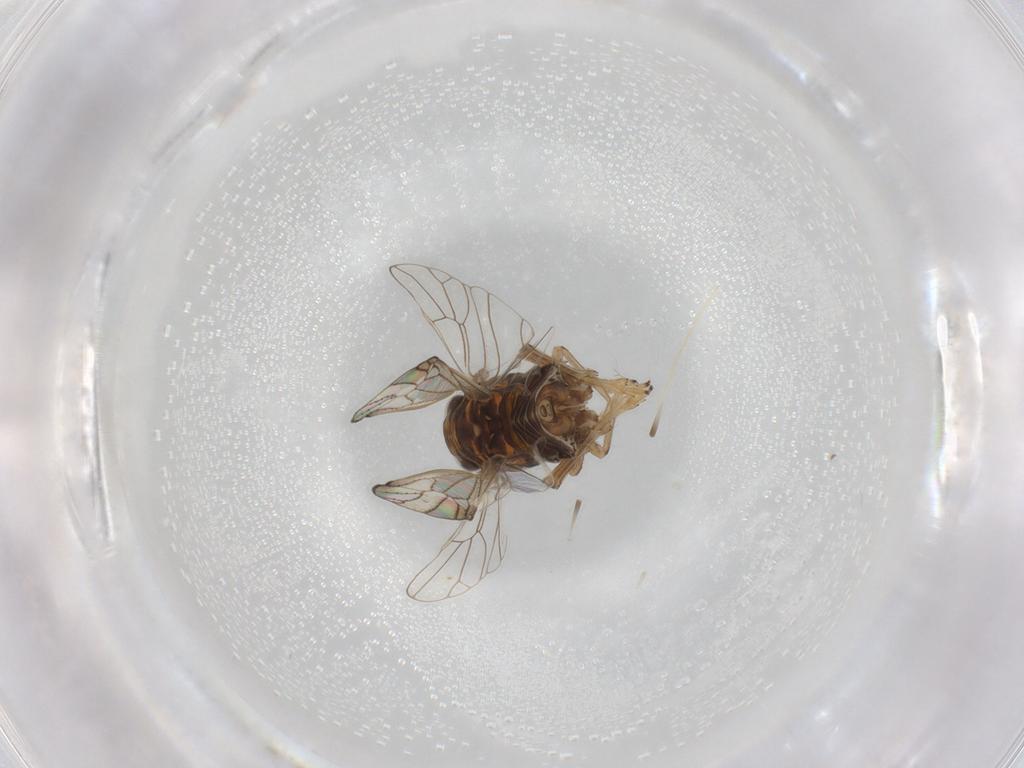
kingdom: Animalia
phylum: Arthropoda
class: Insecta
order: Hemiptera
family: Delphacidae
